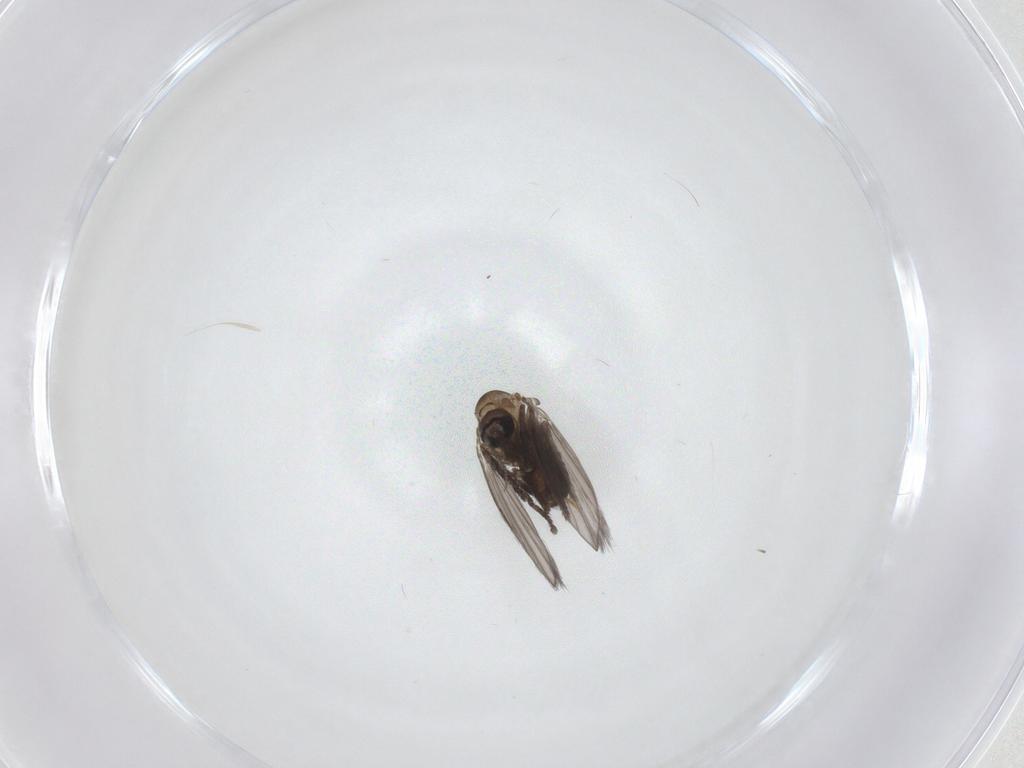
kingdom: Animalia
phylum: Arthropoda
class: Insecta
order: Diptera
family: Psychodidae
